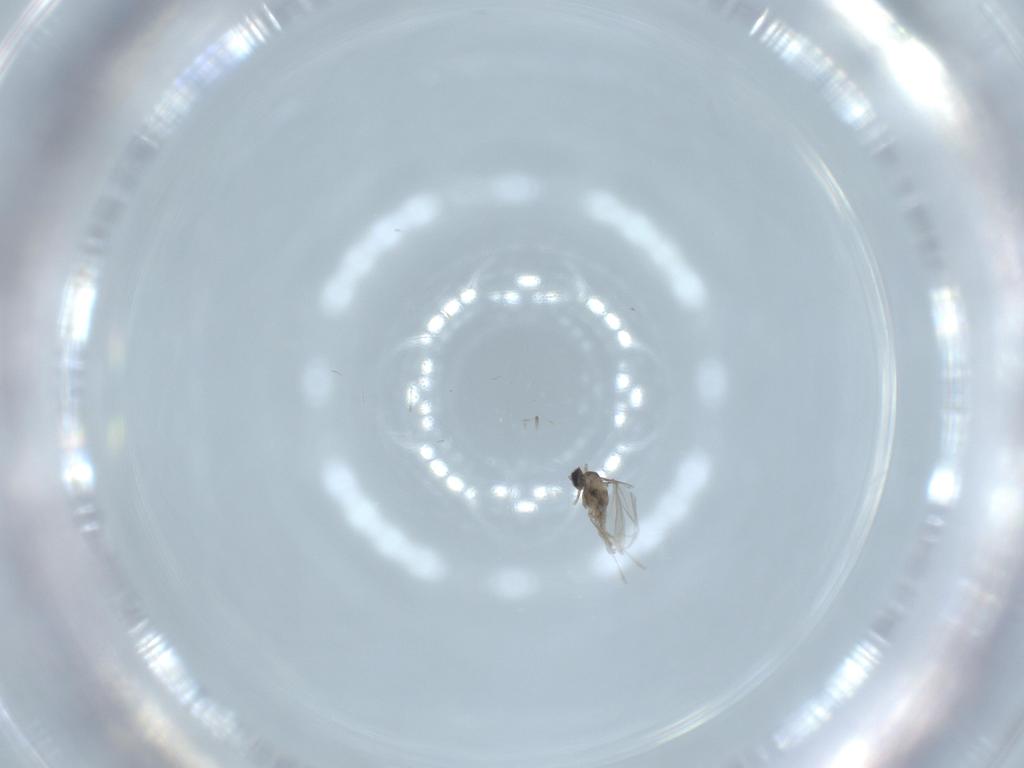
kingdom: Animalia
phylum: Arthropoda
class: Insecta
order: Diptera
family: Cecidomyiidae
